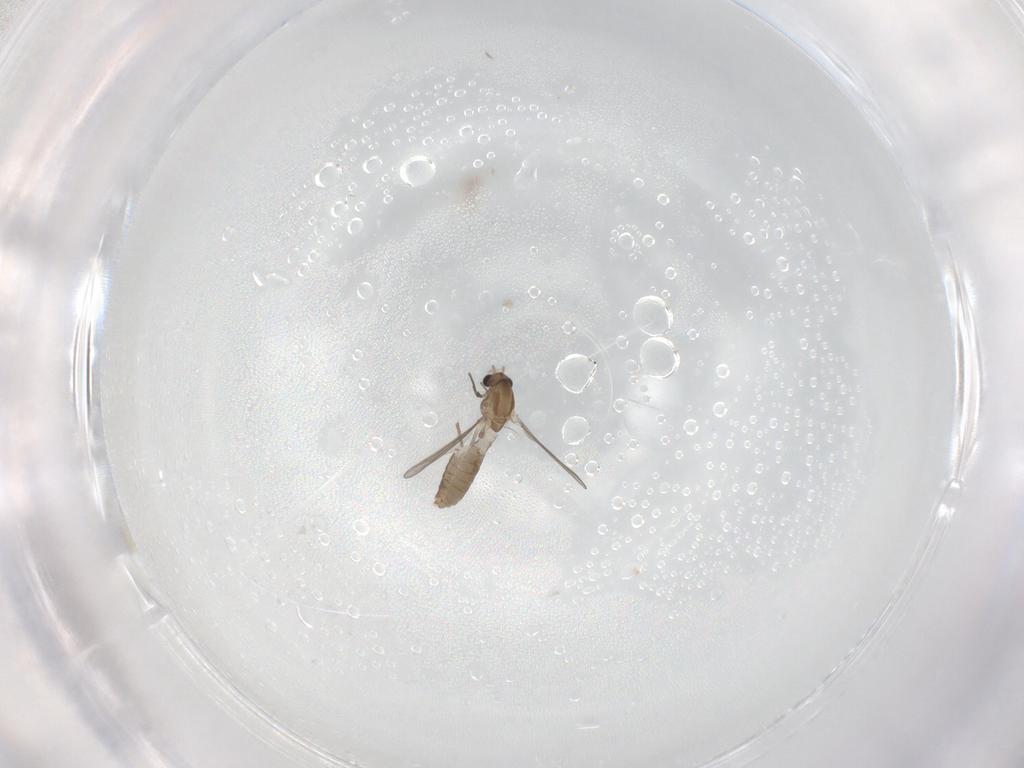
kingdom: Animalia
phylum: Arthropoda
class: Insecta
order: Diptera
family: Chironomidae
